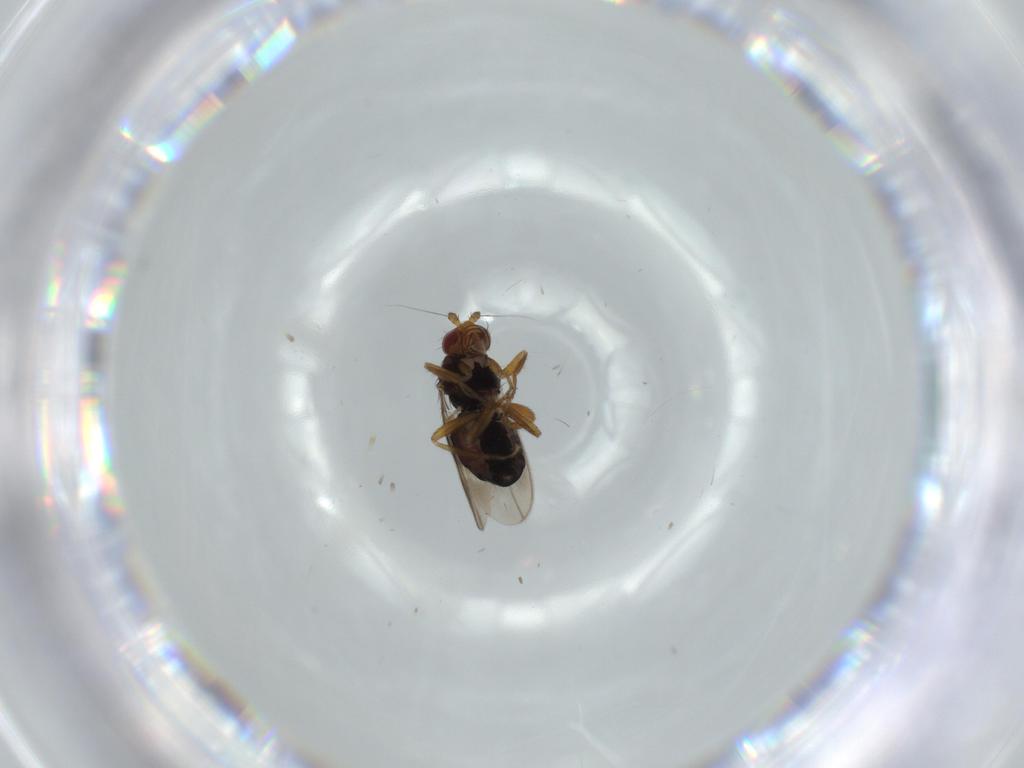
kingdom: Animalia
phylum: Arthropoda
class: Insecta
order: Diptera
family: Sphaeroceridae
